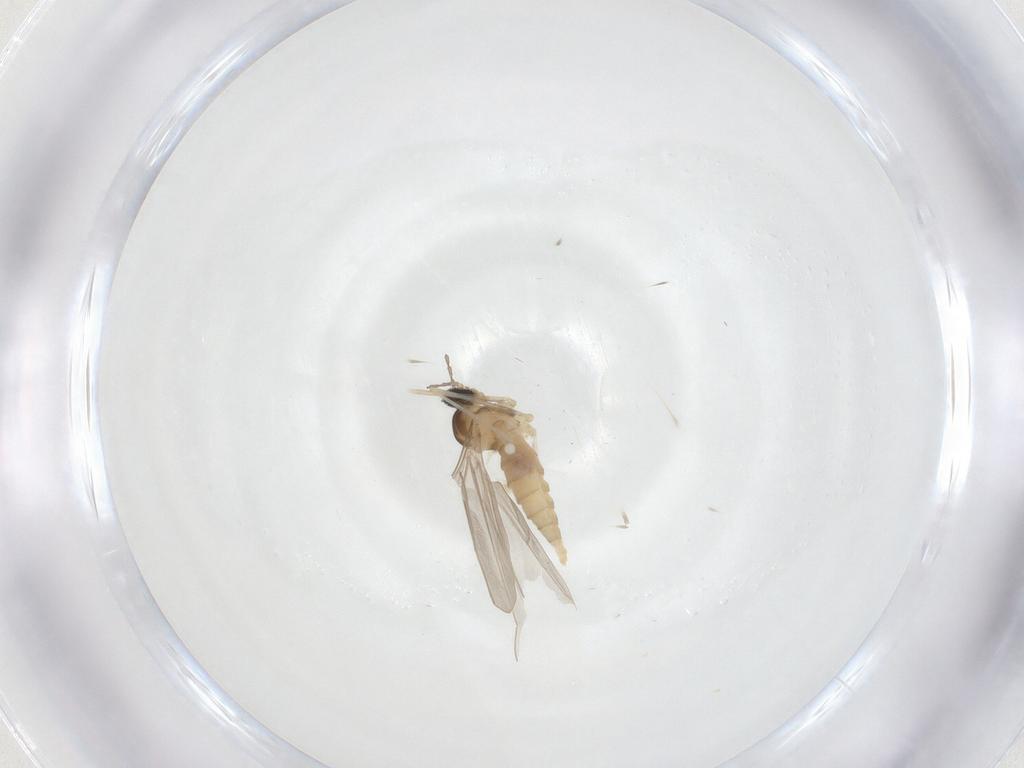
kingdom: Animalia
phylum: Arthropoda
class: Insecta
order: Diptera
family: Cecidomyiidae
